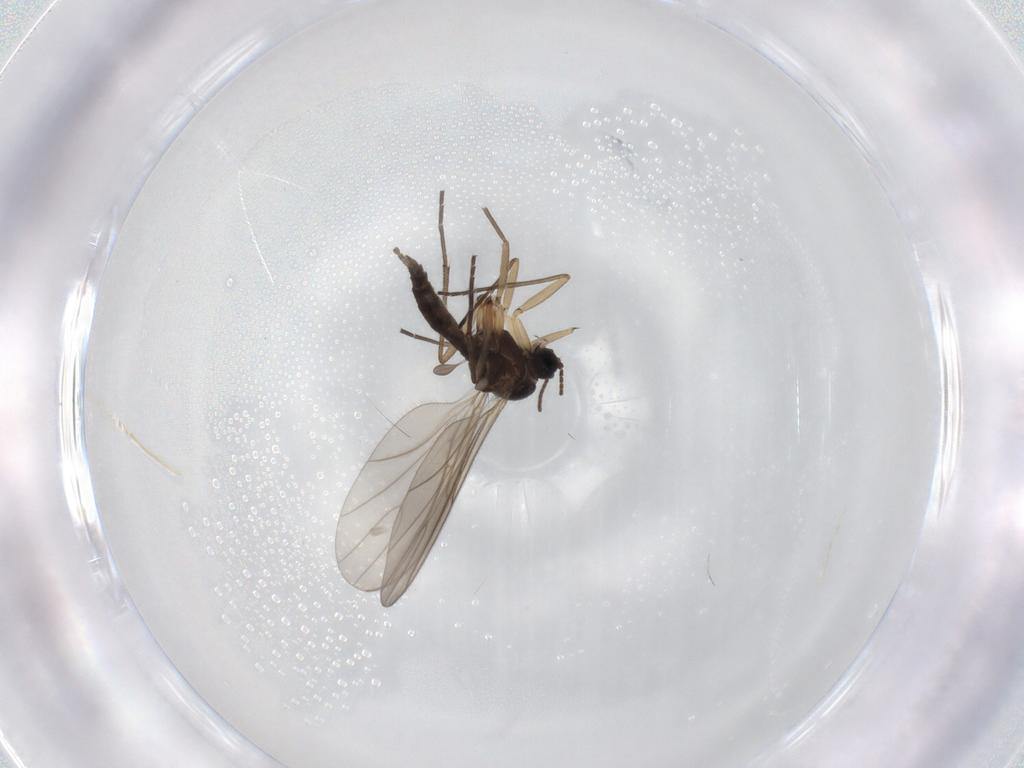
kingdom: Animalia
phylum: Arthropoda
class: Insecta
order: Diptera
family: Sciaridae
